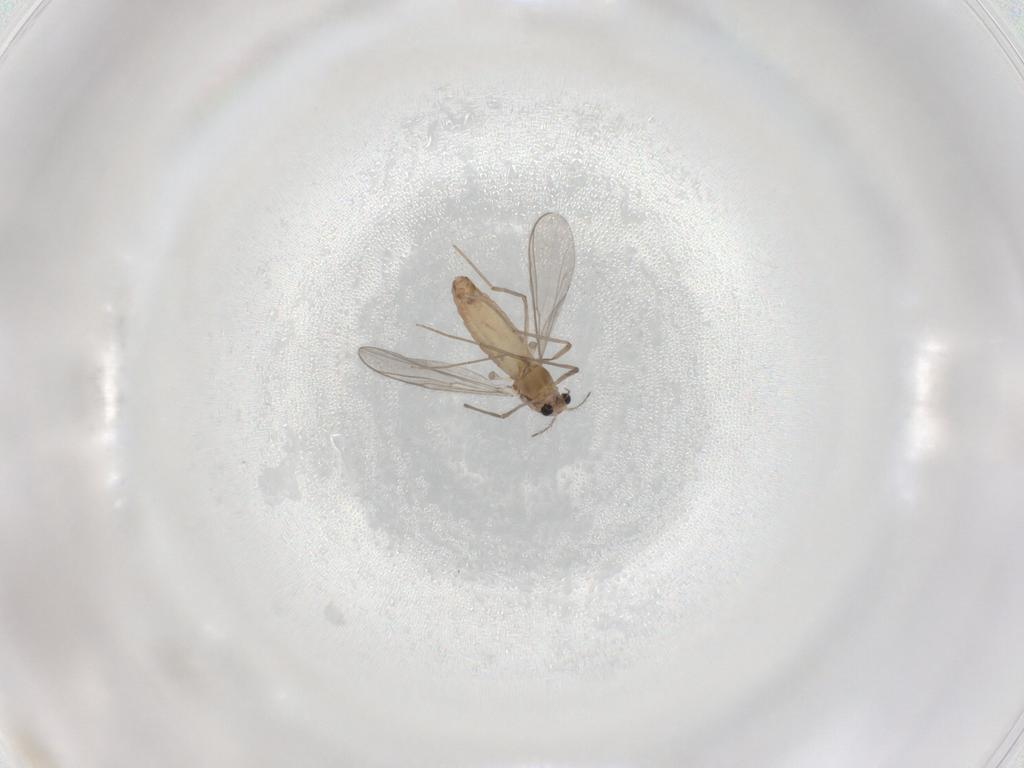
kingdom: Animalia
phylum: Arthropoda
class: Insecta
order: Diptera
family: Chironomidae
